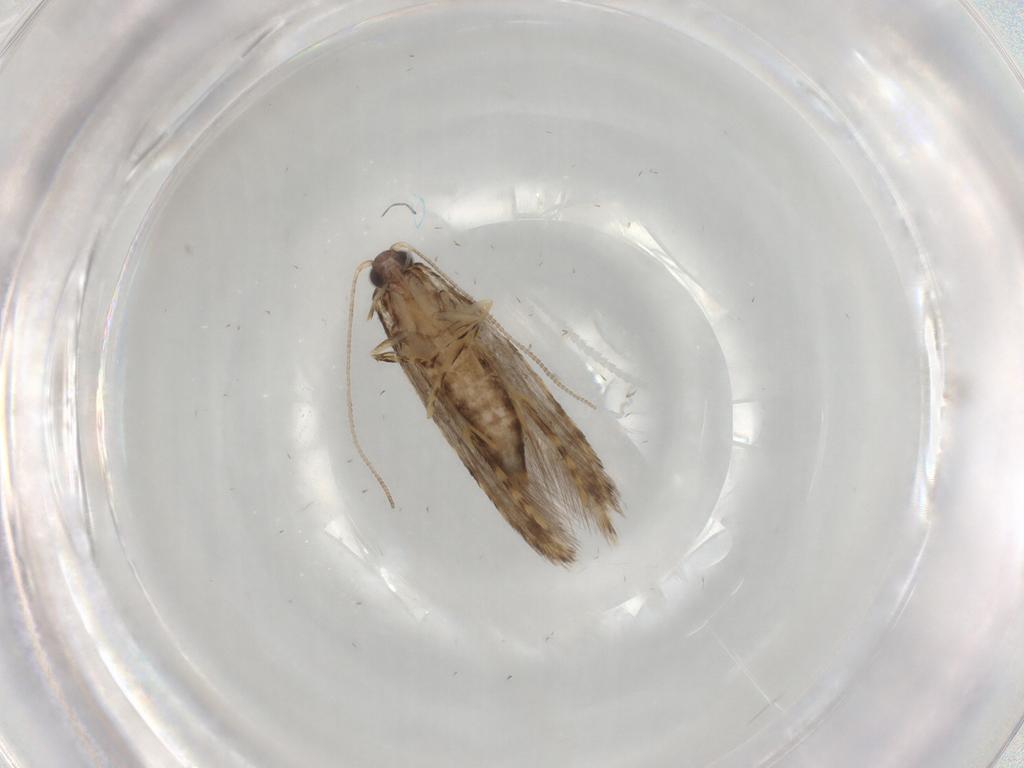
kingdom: Animalia
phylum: Arthropoda
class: Insecta
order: Lepidoptera
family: Tineidae
